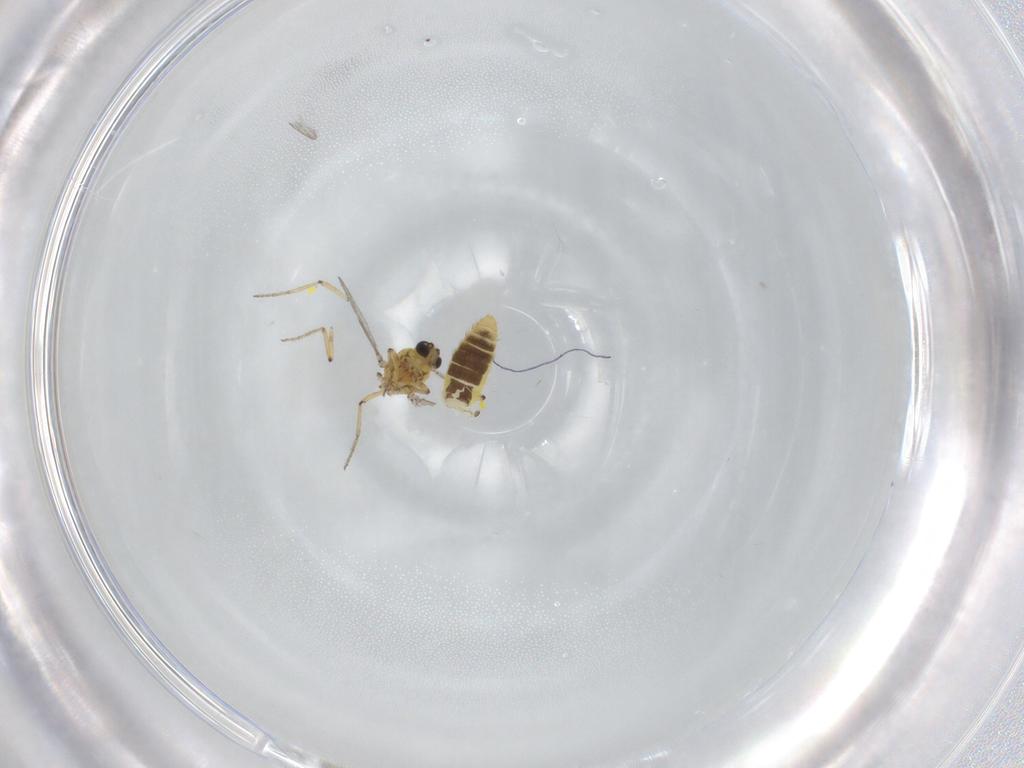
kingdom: Animalia
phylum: Arthropoda
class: Insecta
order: Diptera
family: Ceratopogonidae
